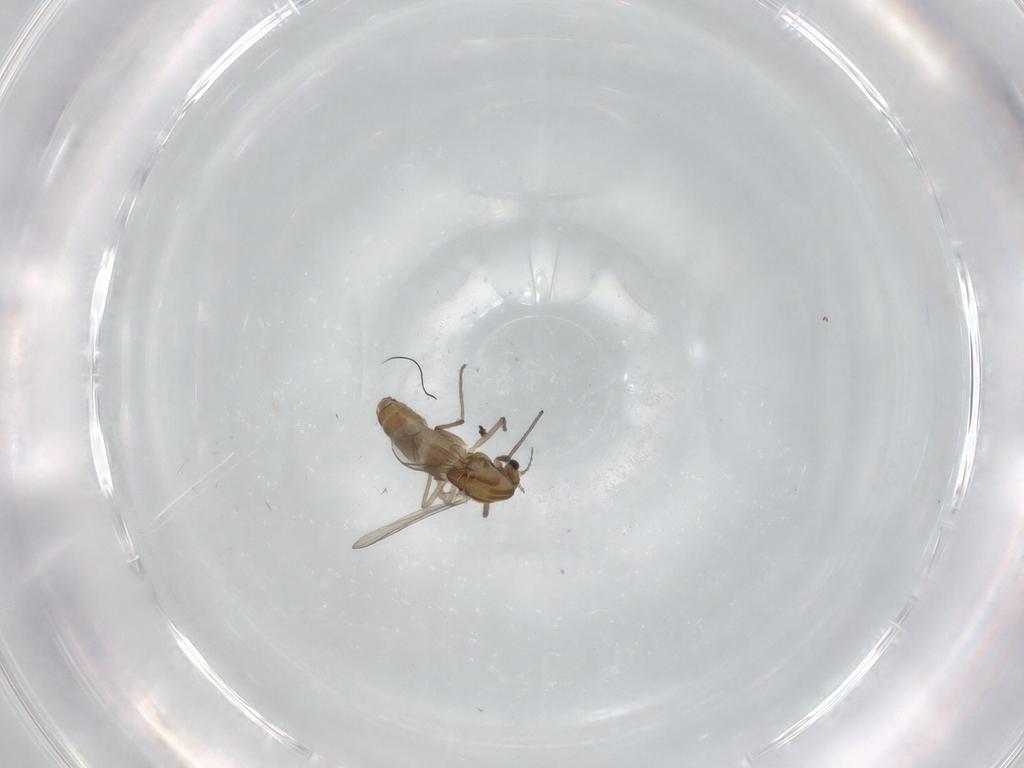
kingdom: Animalia
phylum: Arthropoda
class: Insecta
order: Diptera
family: Chironomidae
